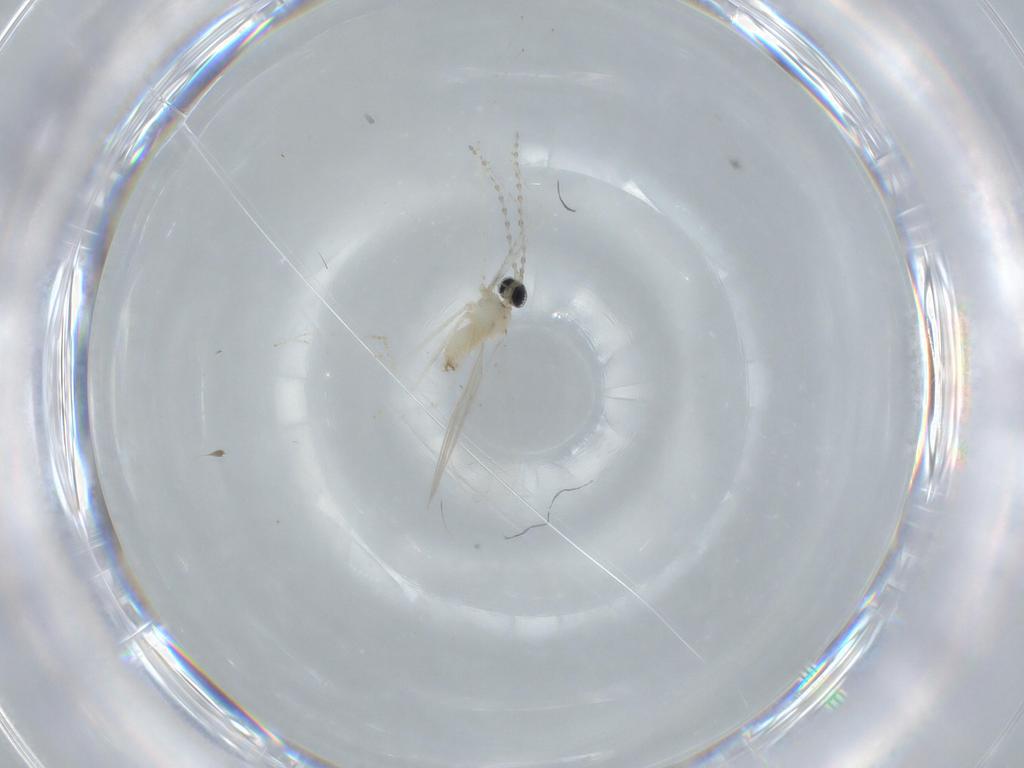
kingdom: Animalia
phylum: Arthropoda
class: Insecta
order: Diptera
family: Cecidomyiidae
